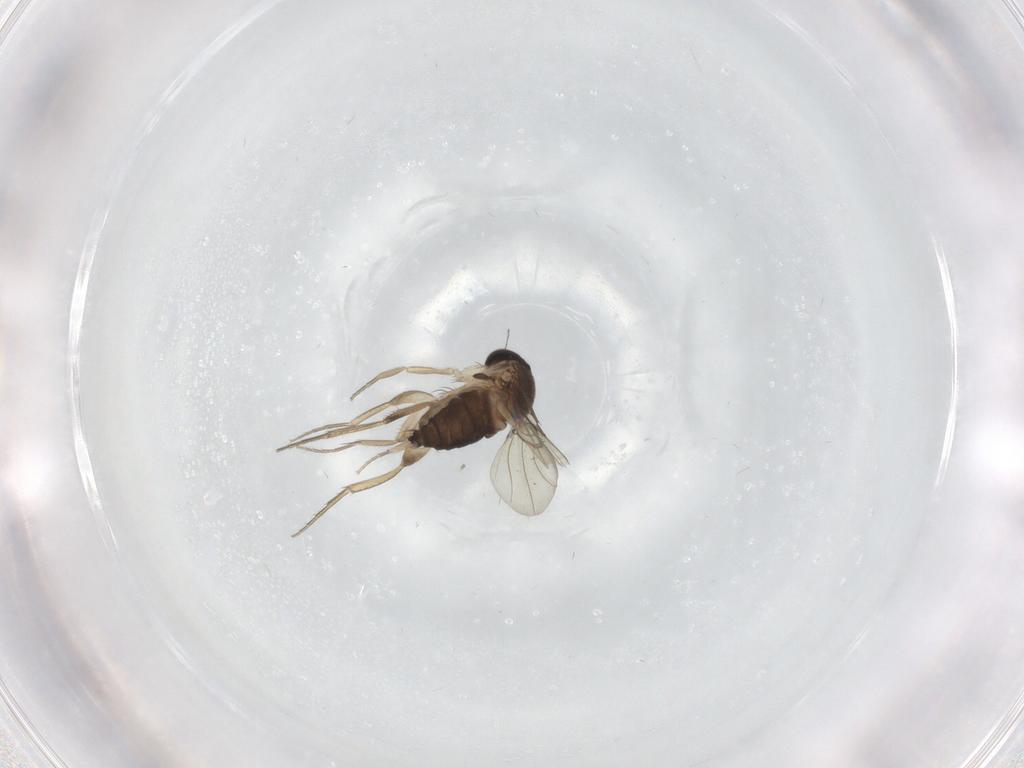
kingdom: Animalia
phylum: Arthropoda
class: Insecta
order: Diptera
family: Phoridae
